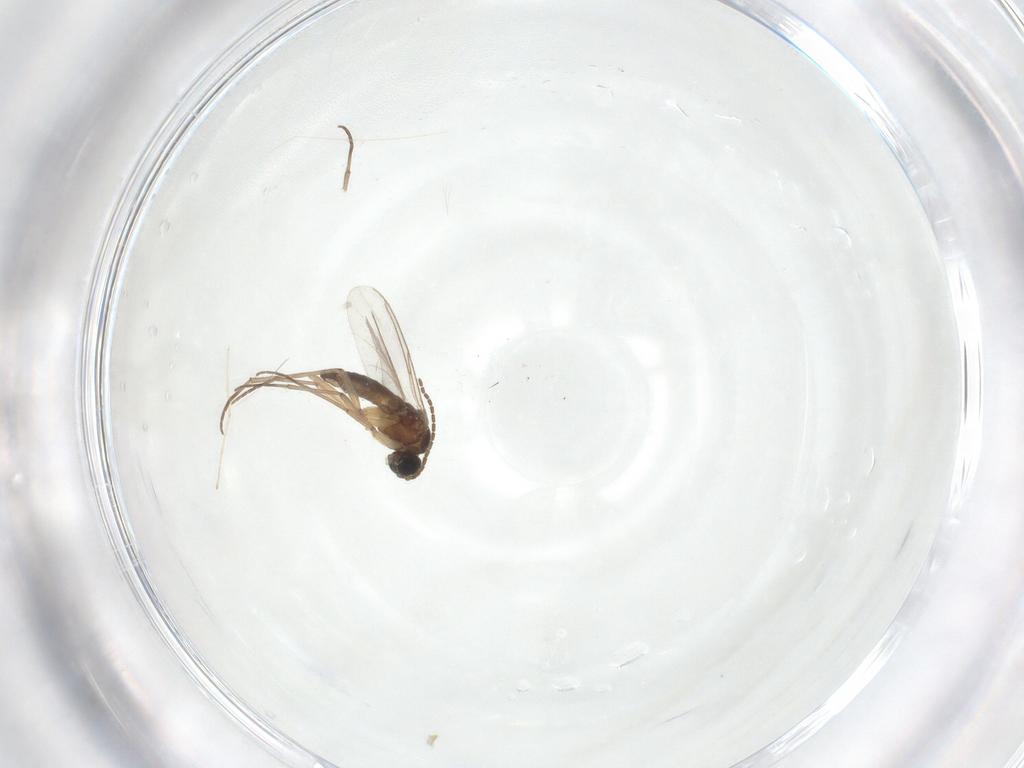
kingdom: Animalia
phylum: Arthropoda
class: Insecta
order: Diptera
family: Sciaridae
